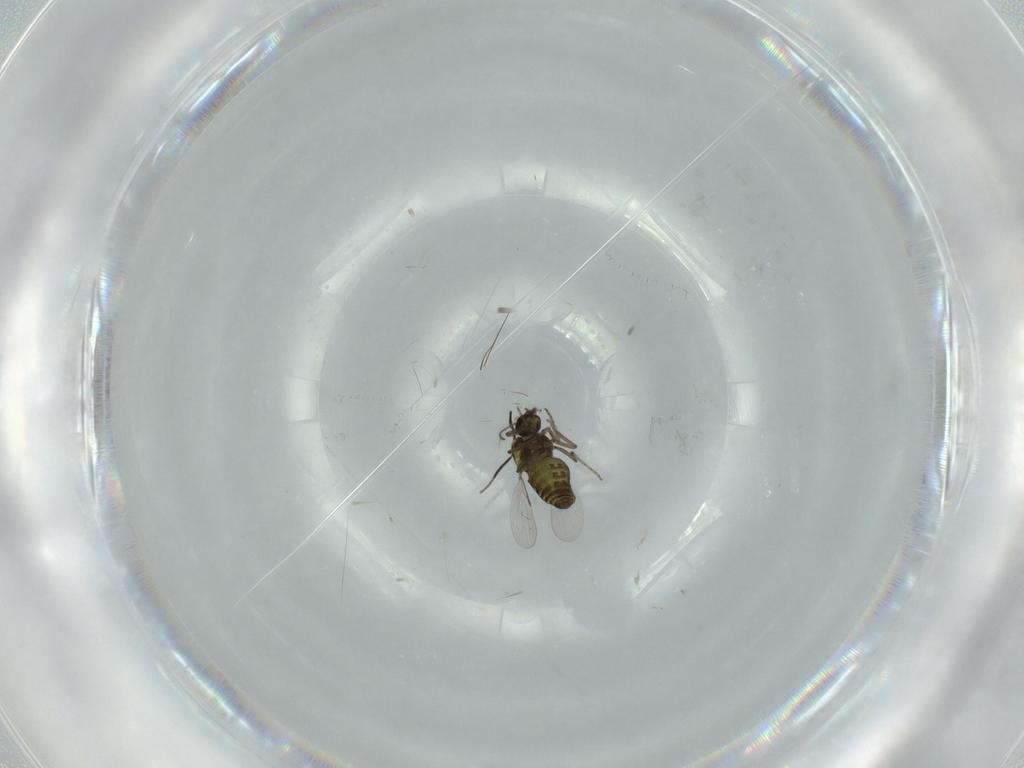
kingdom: Animalia
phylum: Arthropoda
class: Insecta
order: Diptera
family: Ceratopogonidae
